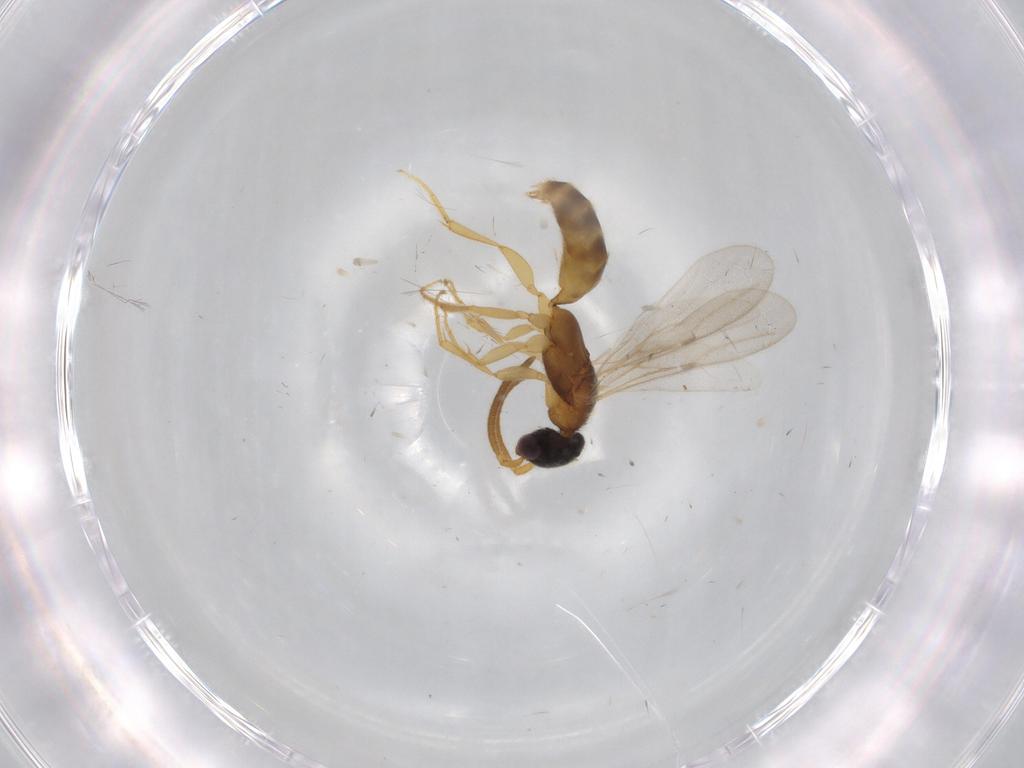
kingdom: Animalia
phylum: Arthropoda
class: Insecta
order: Hymenoptera
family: Bethylidae
